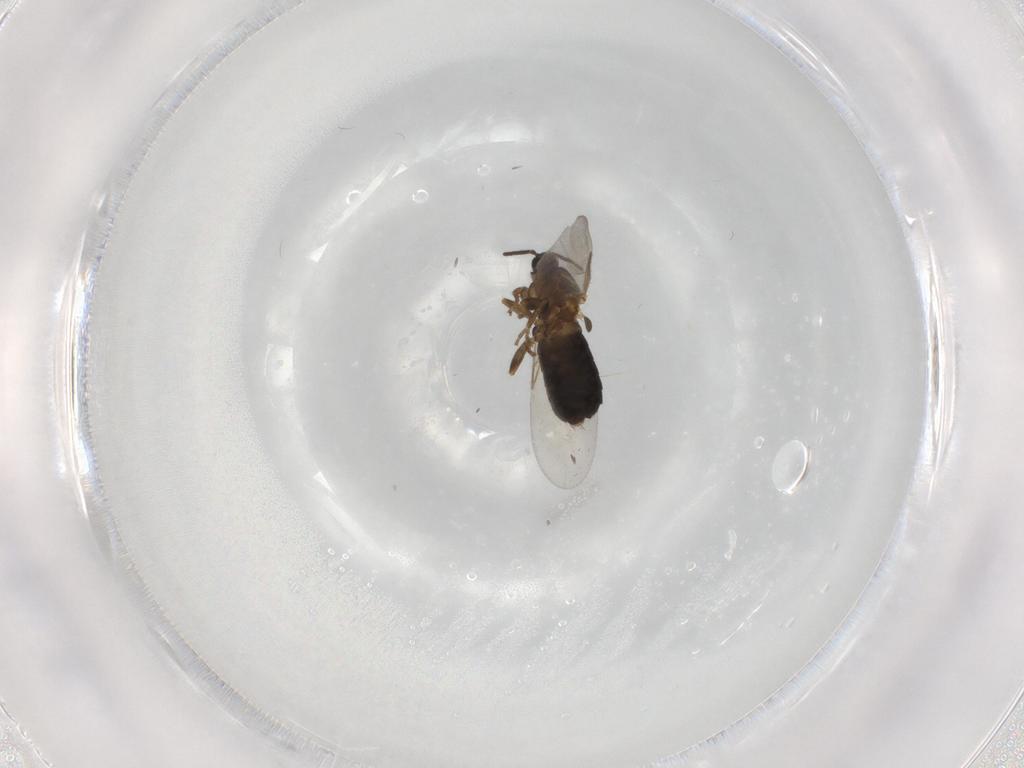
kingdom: Animalia
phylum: Arthropoda
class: Insecta
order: Diptera
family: Scatopsidae
